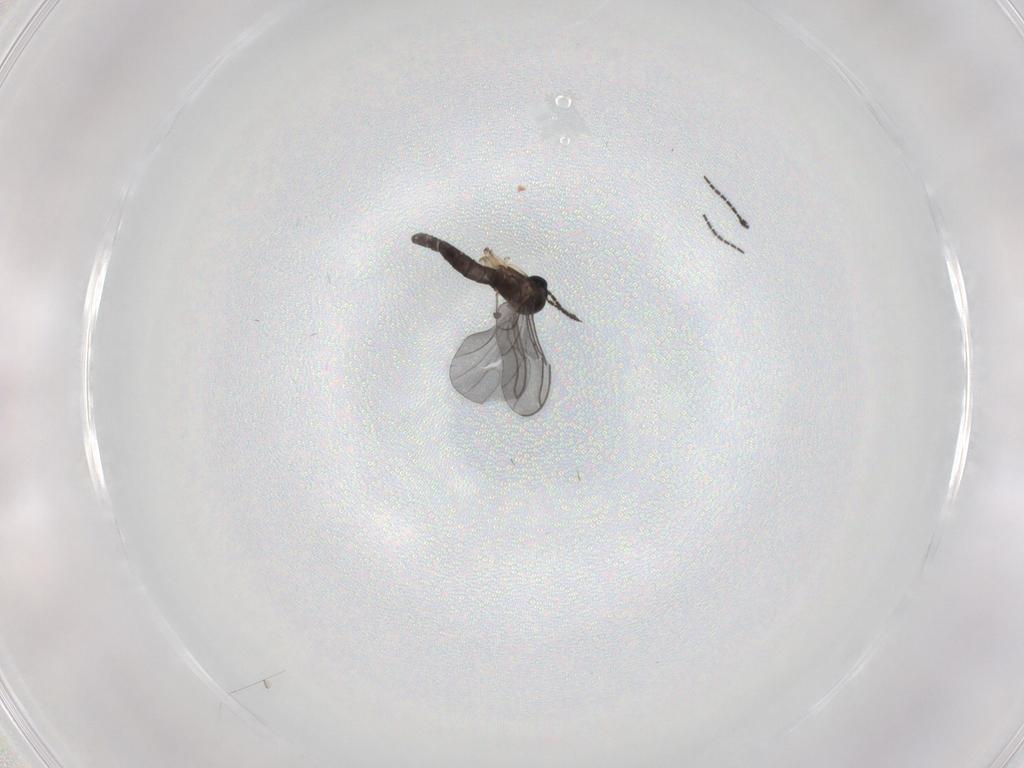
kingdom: Animalia
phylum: Arthropoda
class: Insecta
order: Diptera
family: Sciaridae
